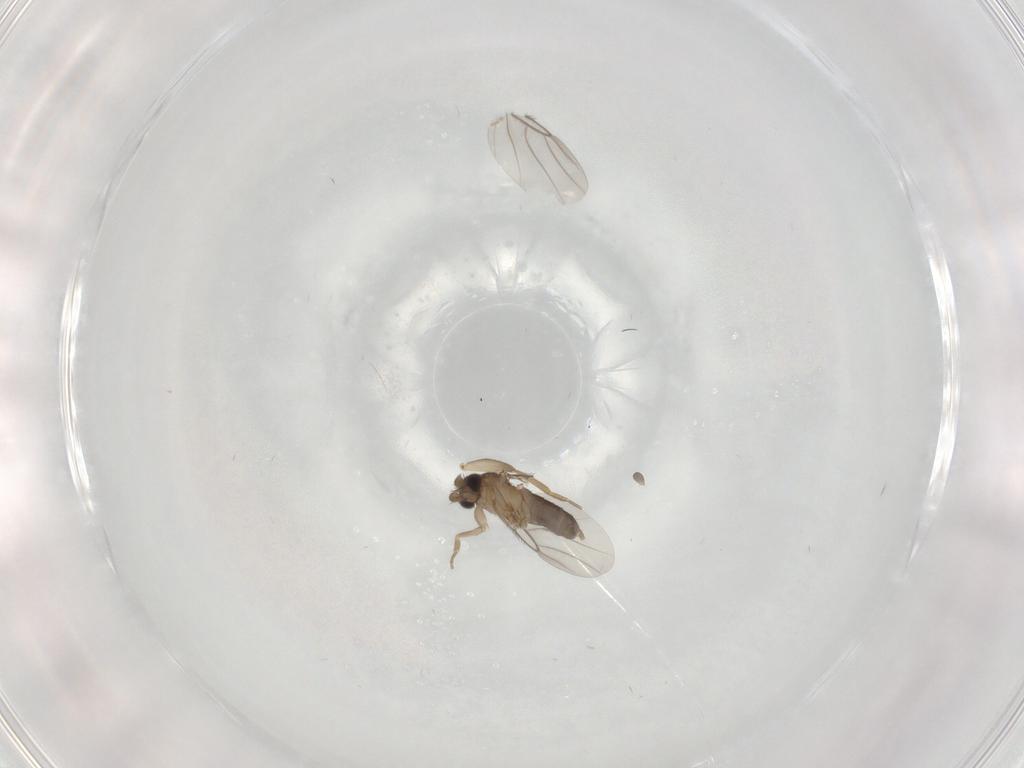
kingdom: Animalia
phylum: Arthropoda
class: Insecta
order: Diptera
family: Phoridae
